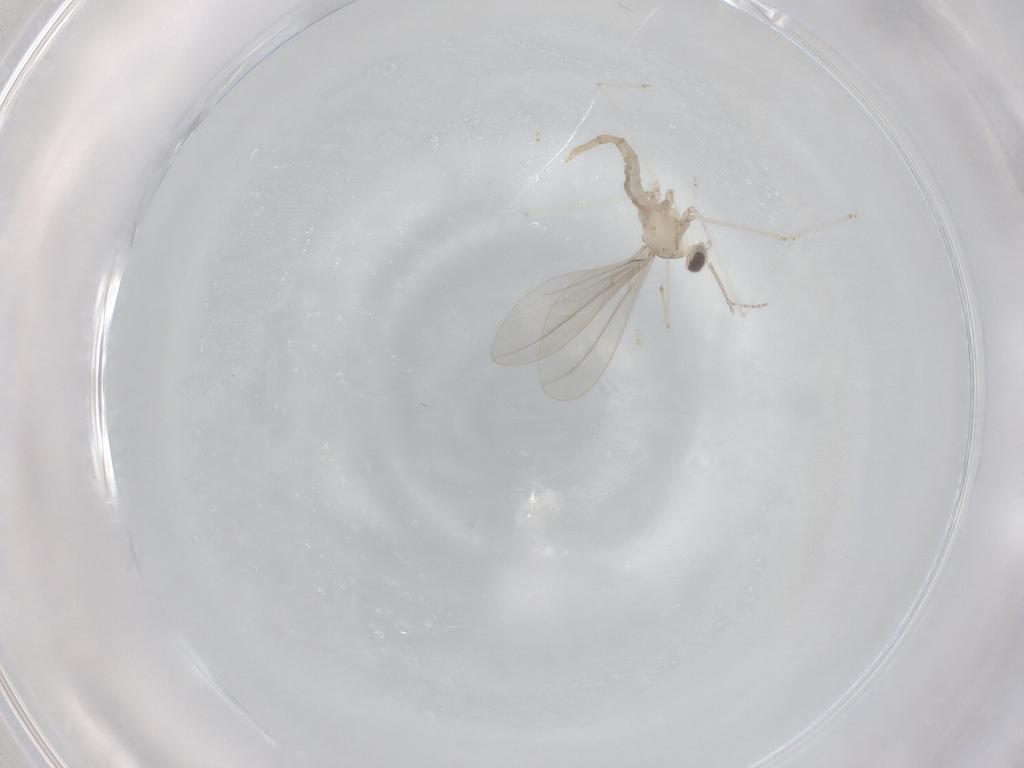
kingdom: Animalia
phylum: Arthropoda
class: Insecta
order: Diptera
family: Cecidomyiidae
